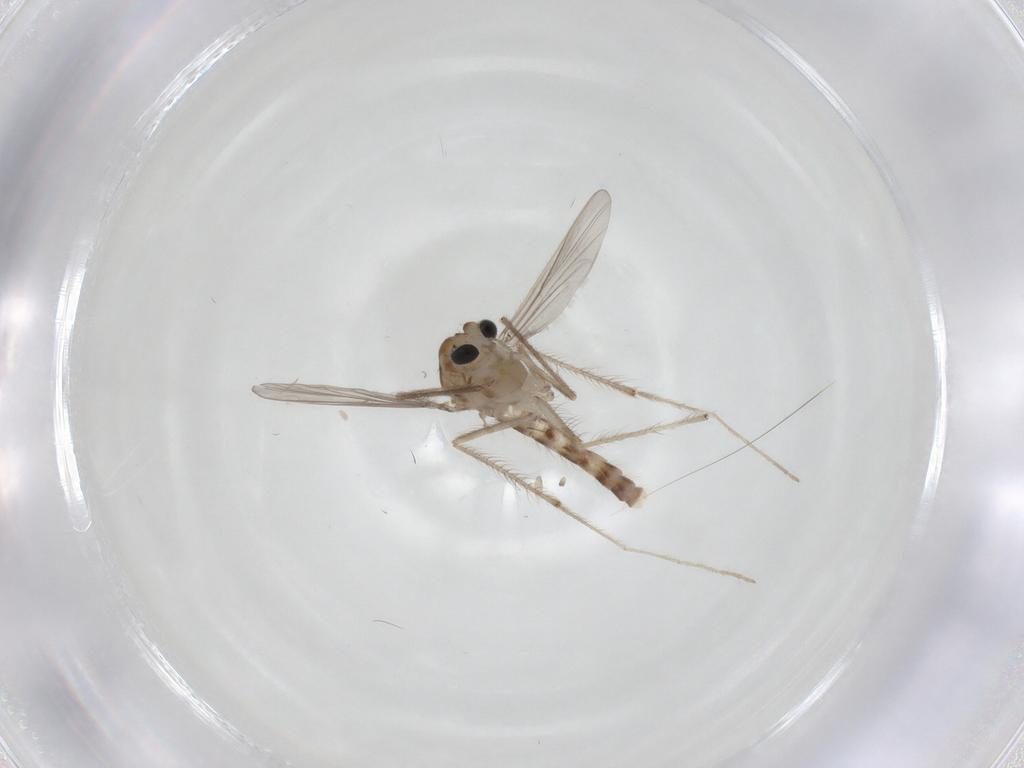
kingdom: Animalia
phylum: Arthropoda
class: Insecta
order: Diptera
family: Chironomidae
